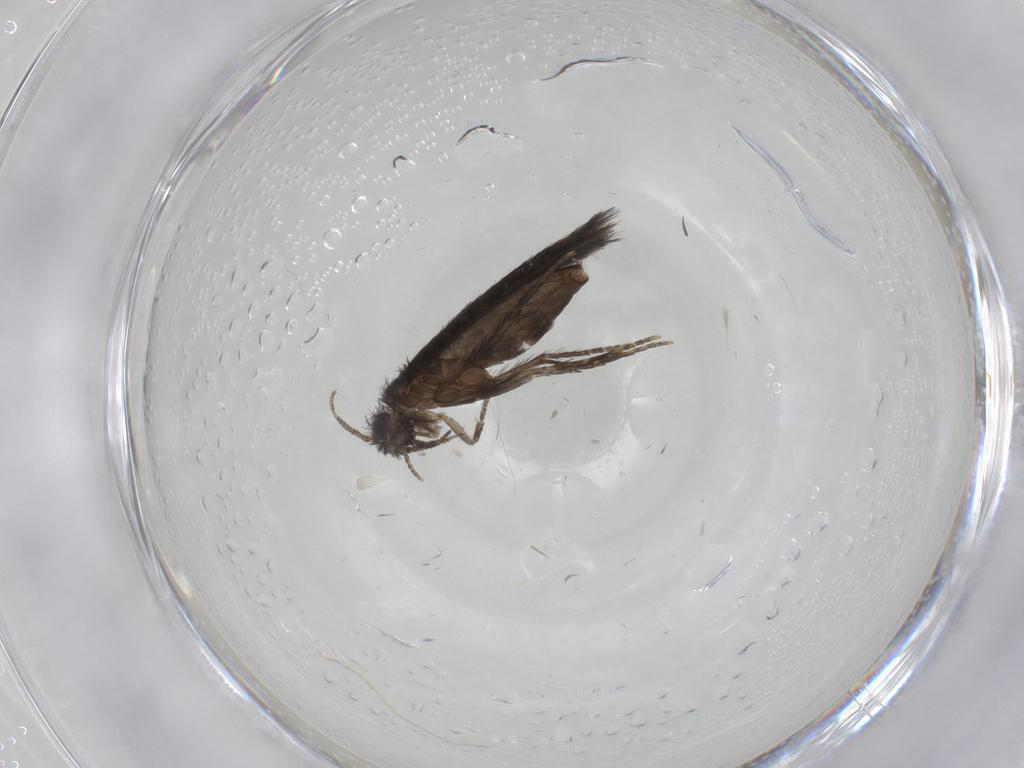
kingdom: Animalia
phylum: Arthropoda
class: Insecta
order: Trichoptera
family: Hydroptilidae
